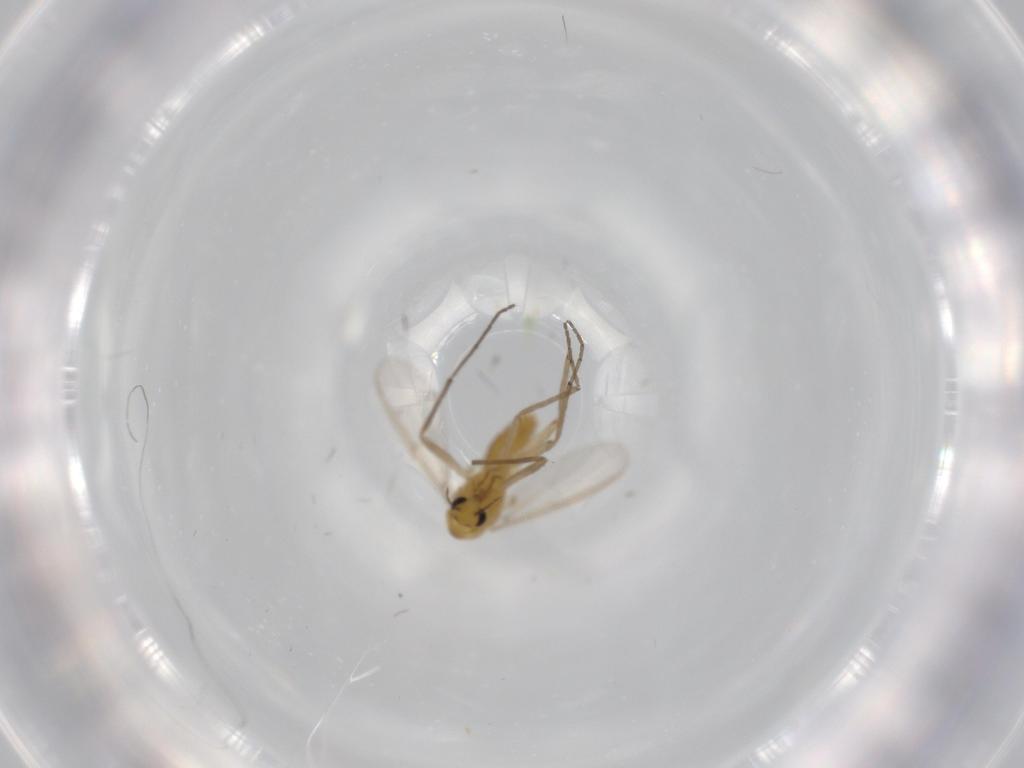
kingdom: Animalia
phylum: Arthropoda
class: Insecta
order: Diptera
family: Chironomidae
